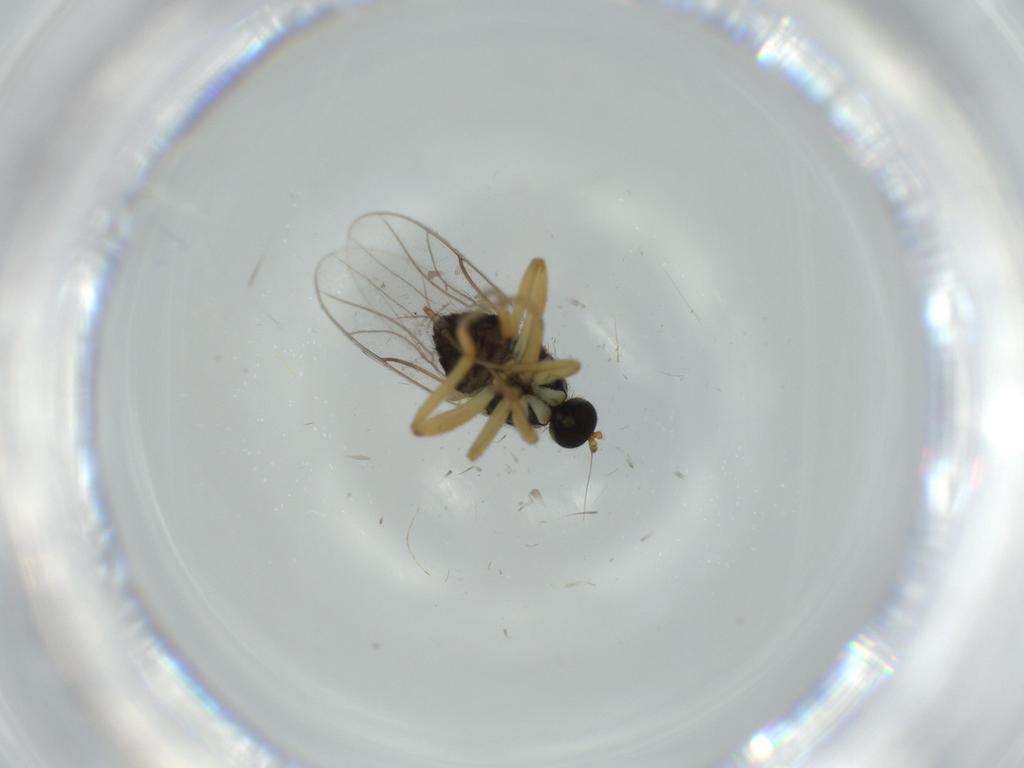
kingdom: Animalia
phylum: Arthropoda
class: Insecta
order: Diptera
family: Hybotidae
